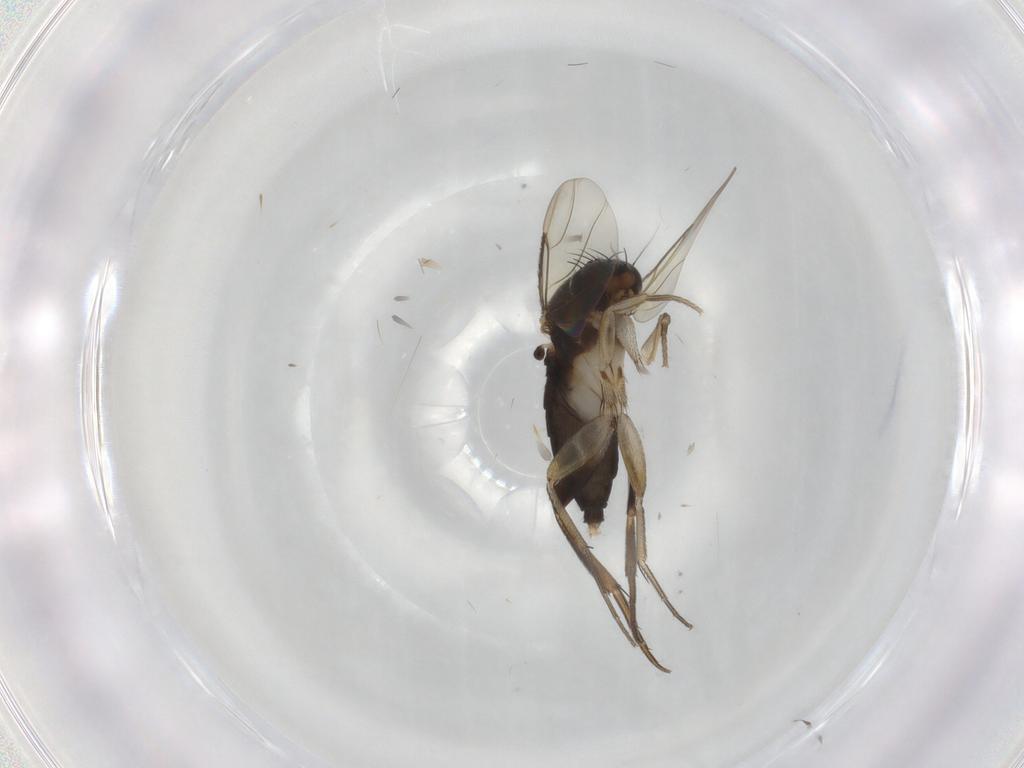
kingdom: Animalia
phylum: Arthropoda
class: Insecta
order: Diptera
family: Phoridae
